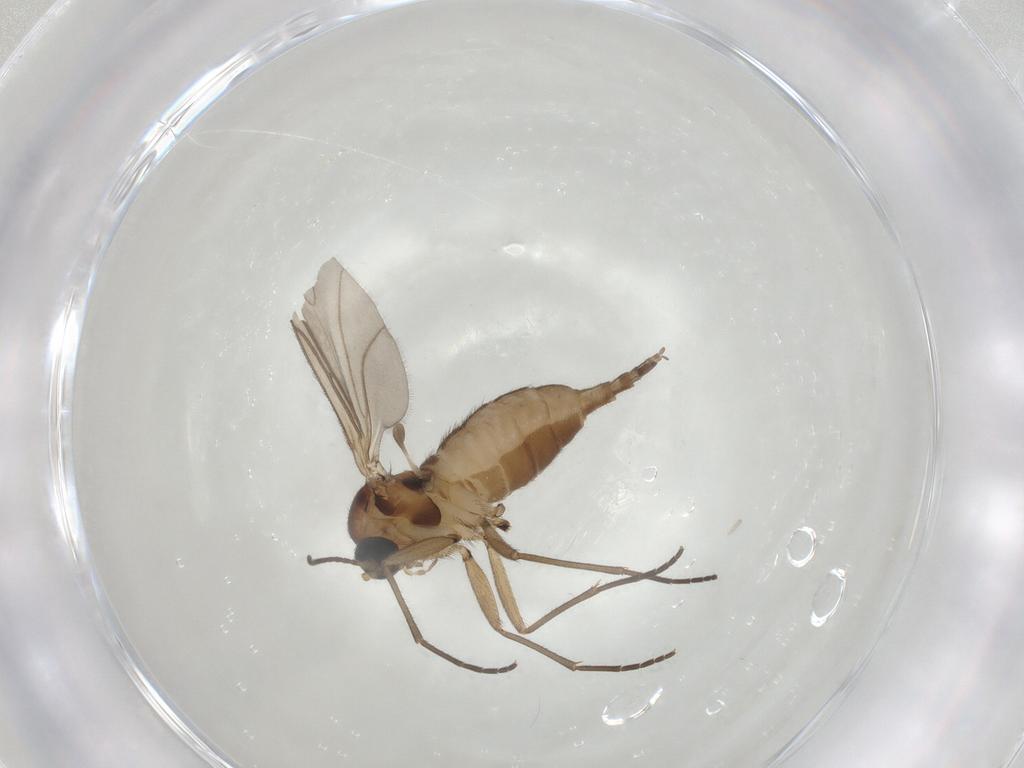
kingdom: Animalia
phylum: Arthropoda
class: Insecta
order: Diptera
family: Sciaridae
